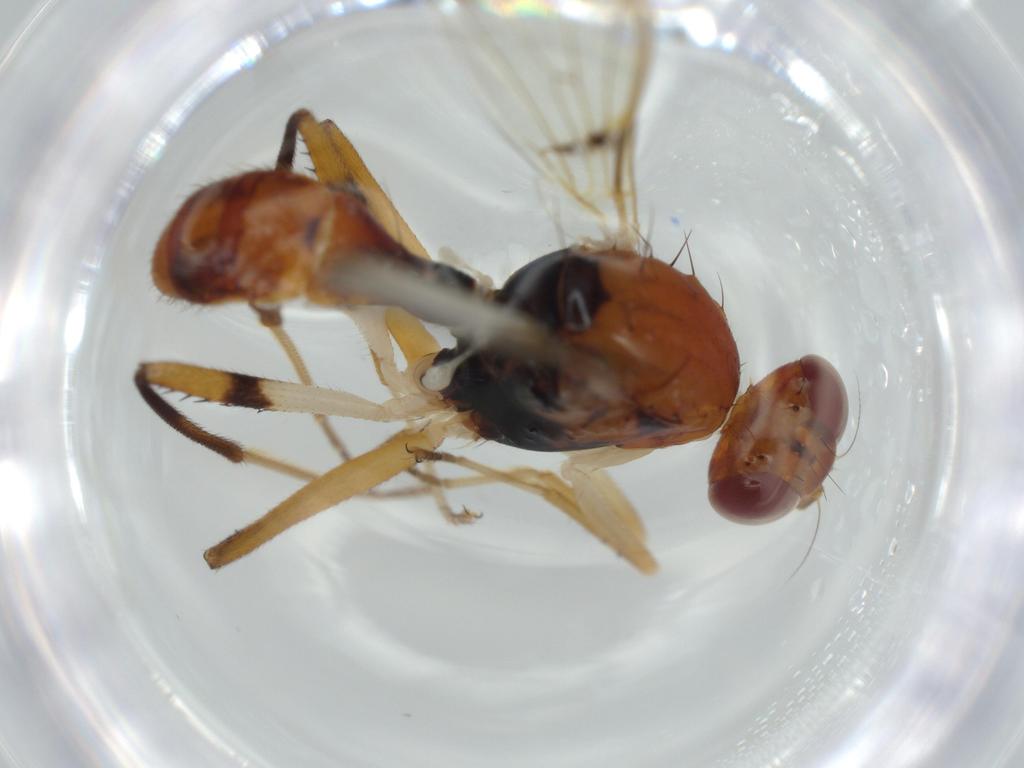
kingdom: Animalia
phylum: Arthropoda
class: Insecta
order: Diptera
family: Richardiidae
